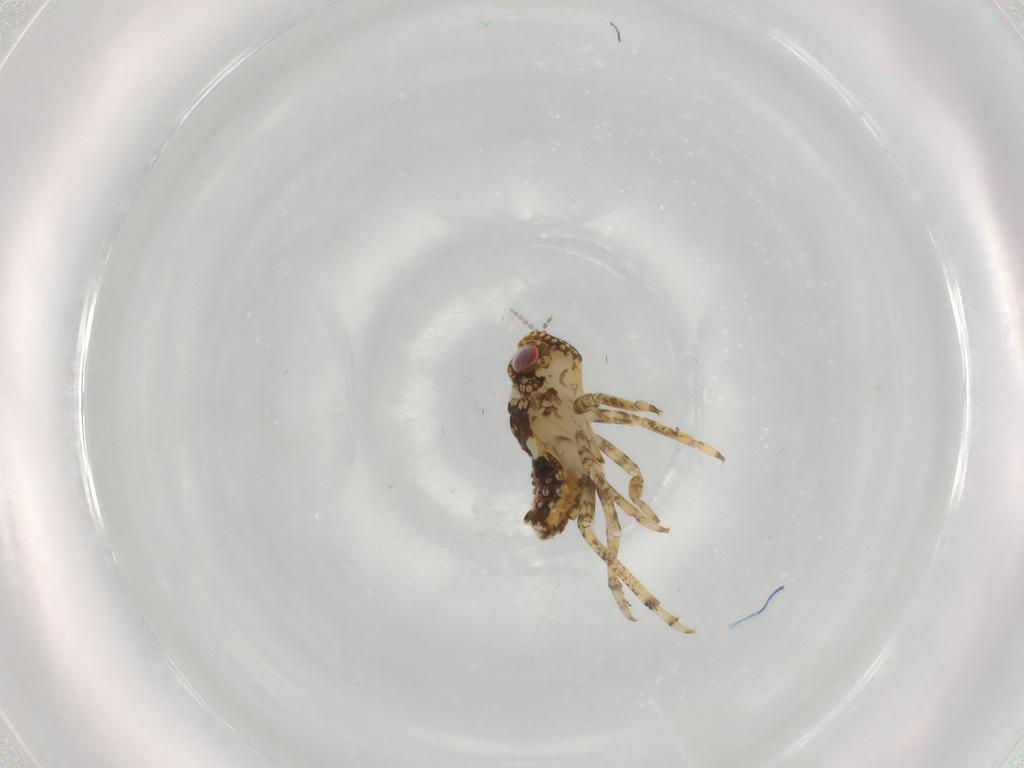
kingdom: Animalia
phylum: Arthropoda
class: Insecta
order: Hemiptera
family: Issidae
